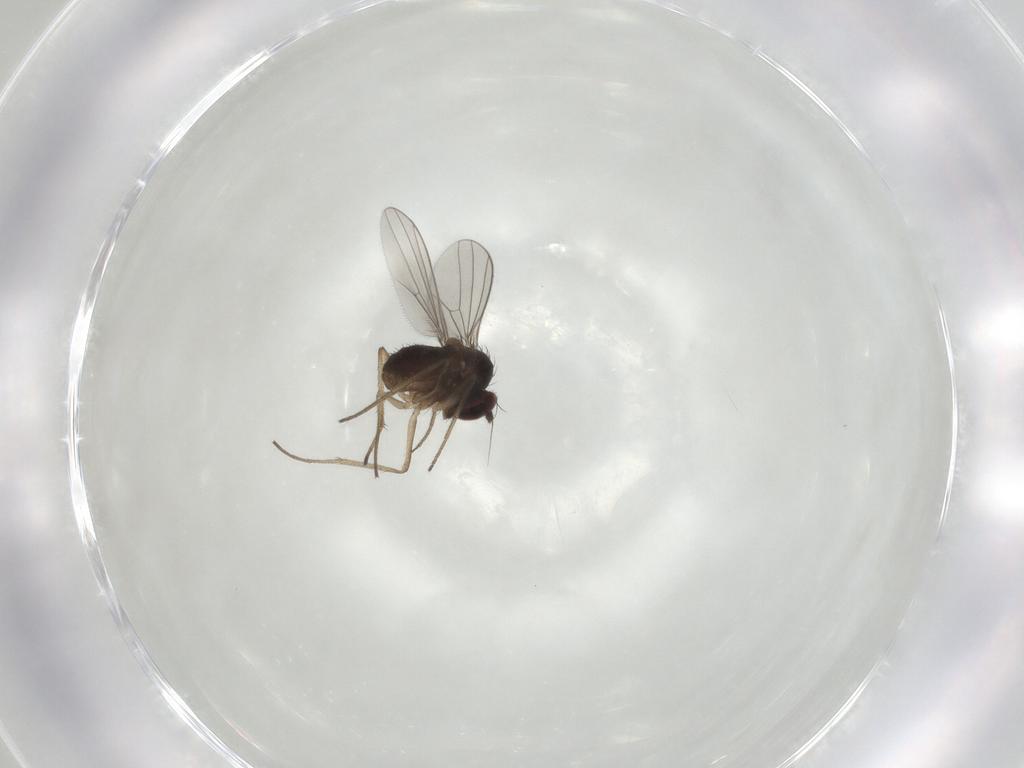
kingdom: Animalia
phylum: Arthropoda
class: Insecta
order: Diptera
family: Dolichopodidae
